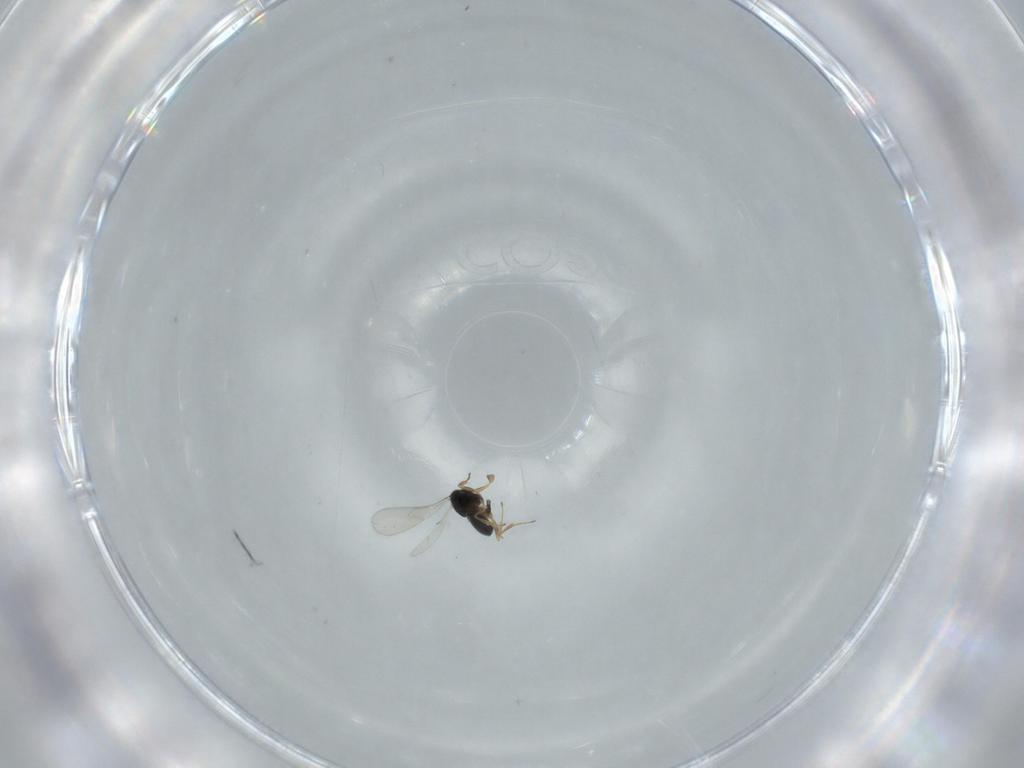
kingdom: Animalia
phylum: Arthropoda
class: Insecta
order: Hymenoptera
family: Scelionidae
